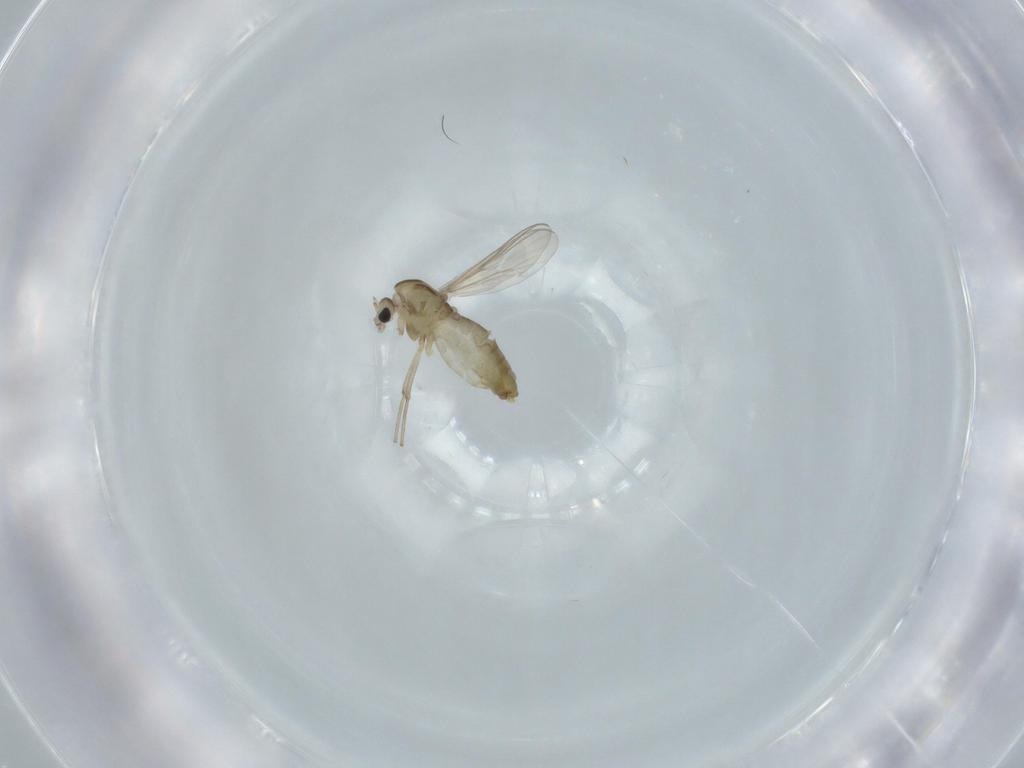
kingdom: Animalia
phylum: Arthropoda
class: Insecta
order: Diptera
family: Chironomidae
